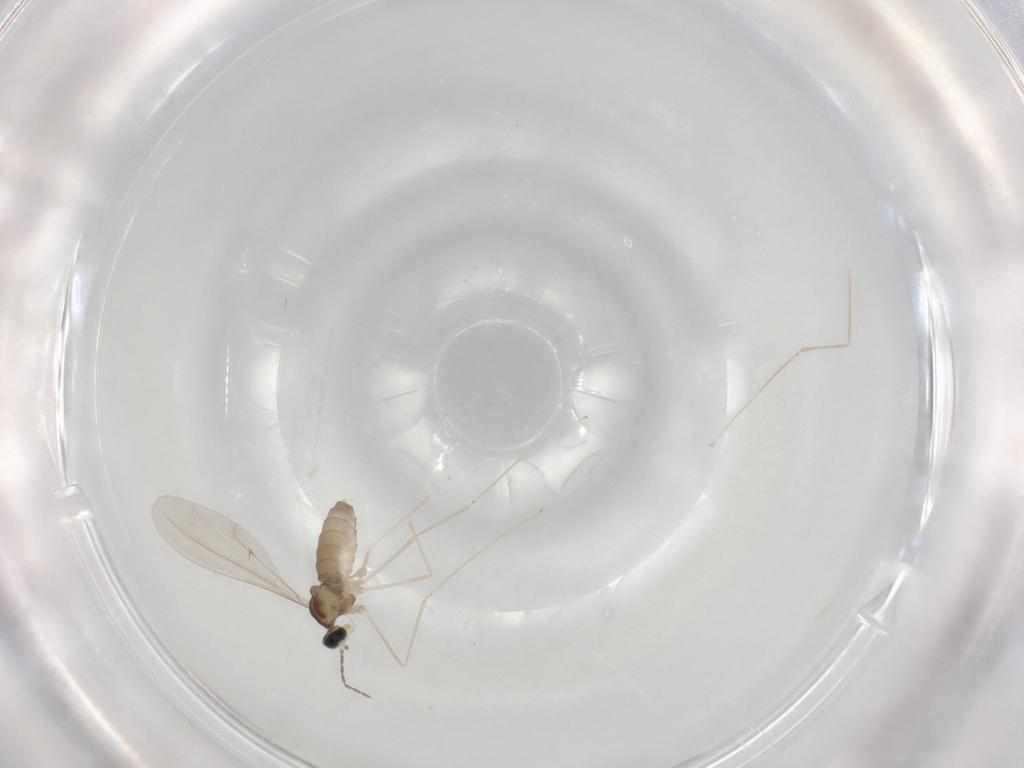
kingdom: Animalia
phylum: Arthropoda
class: Insecta
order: Diptera
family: Cecidomyiidae
